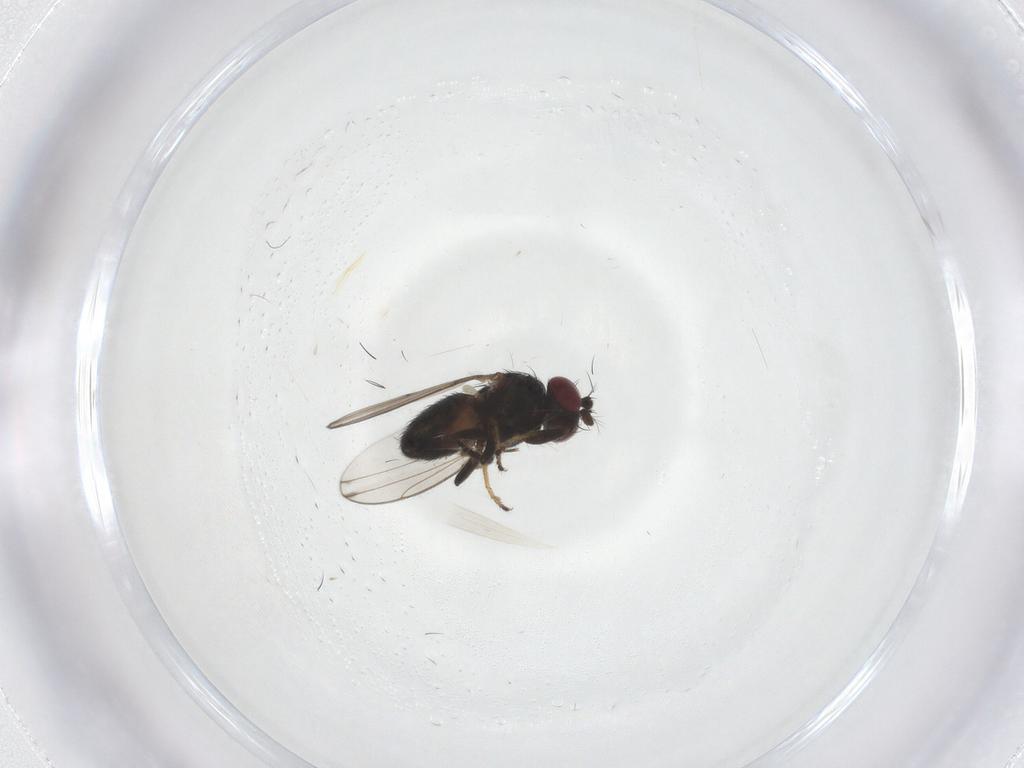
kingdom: Animalia
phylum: Arthropoda
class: Insecta
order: Diptera
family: Ephydridae
